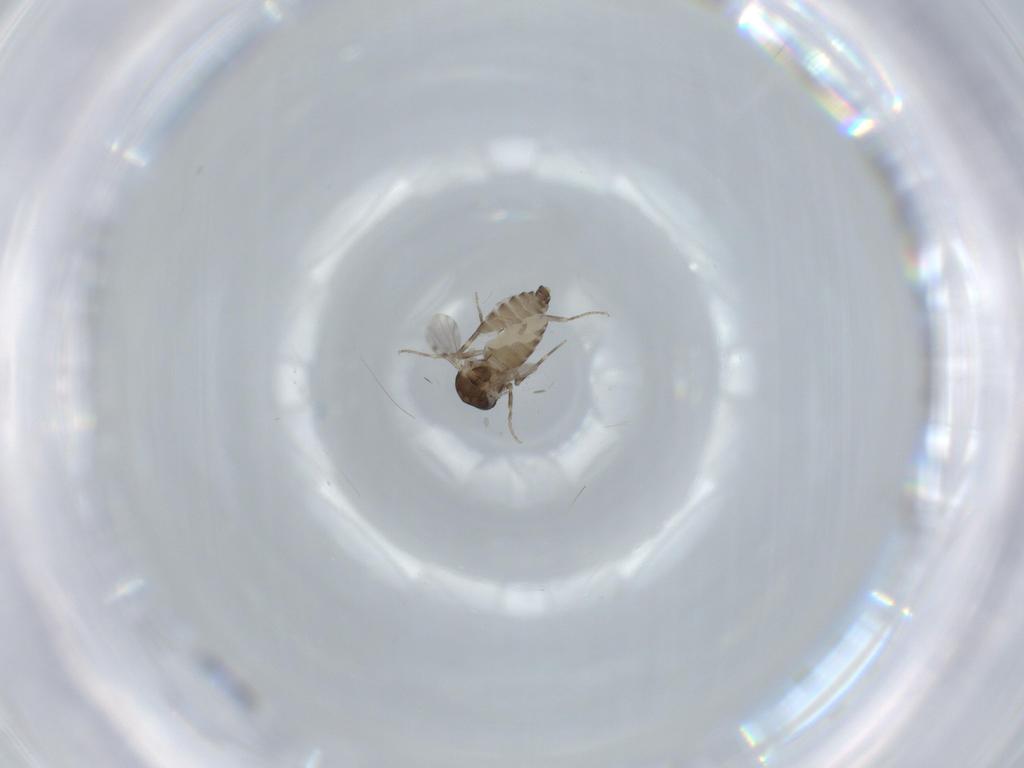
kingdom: Animalia
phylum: Arthropoda
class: Insecta
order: Diptera
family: Ceratopogonidae
